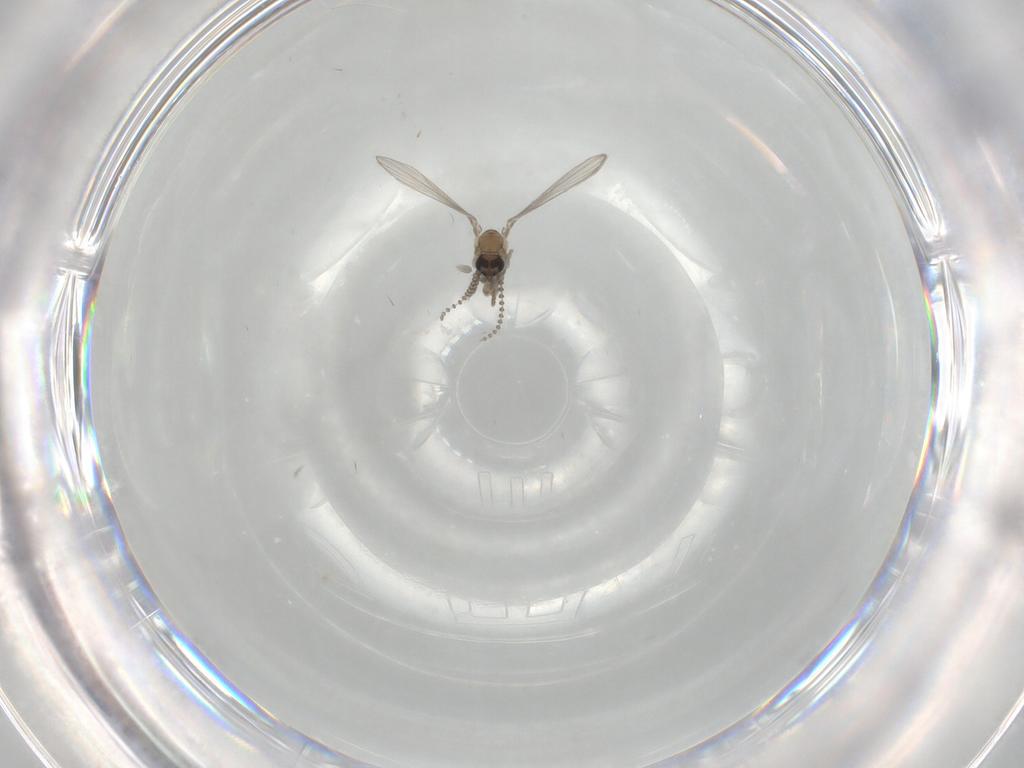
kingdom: Animalia
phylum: Arthropoda
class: Insecta
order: Diptera
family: Psychodidae
